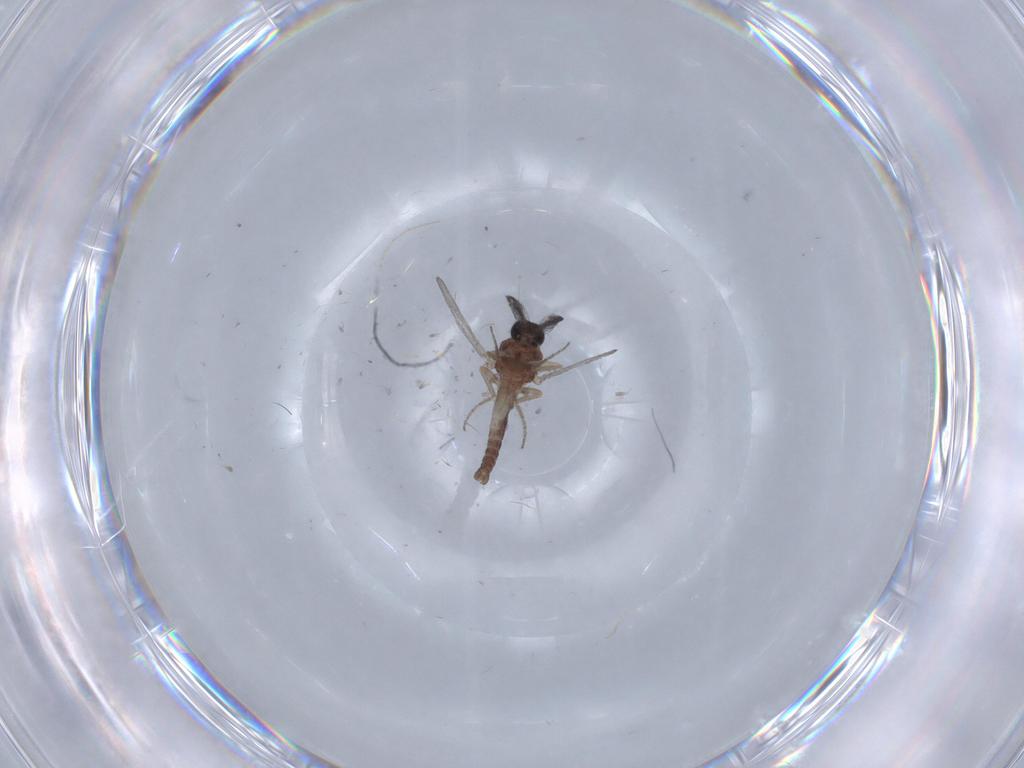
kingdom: Animalia
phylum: Arthropoda
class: Insecta
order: Diptera
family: Ceratopogonidae
